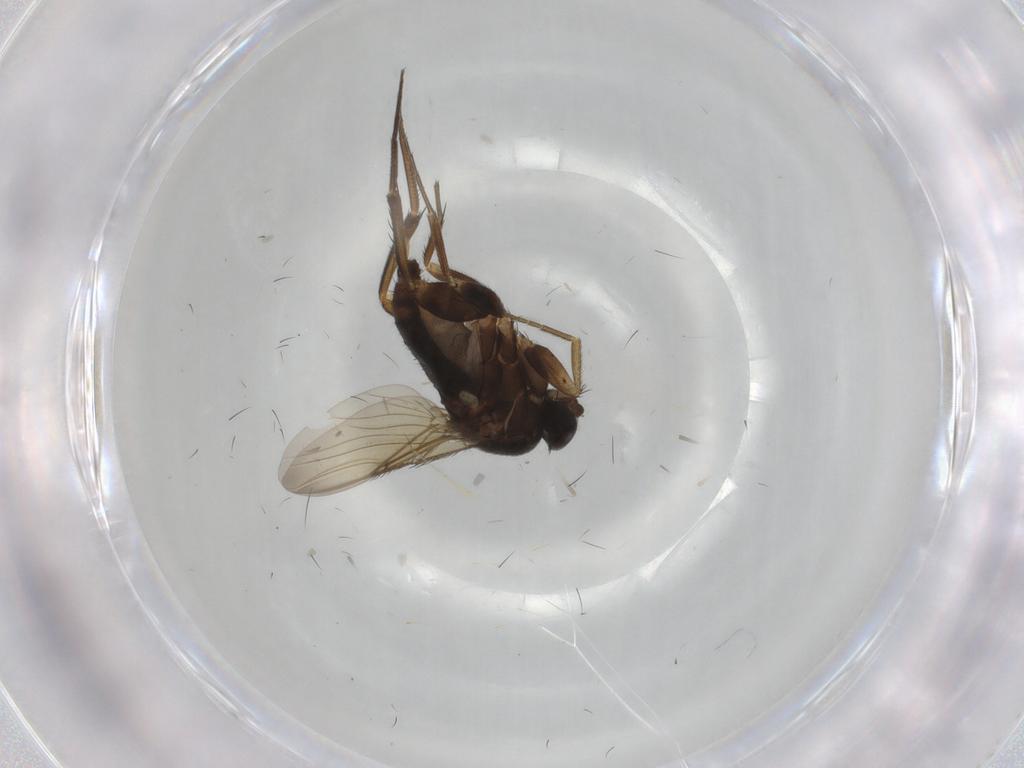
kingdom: Animalia
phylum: Arthropoda
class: Insecta
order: Diptera
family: Phoridae
